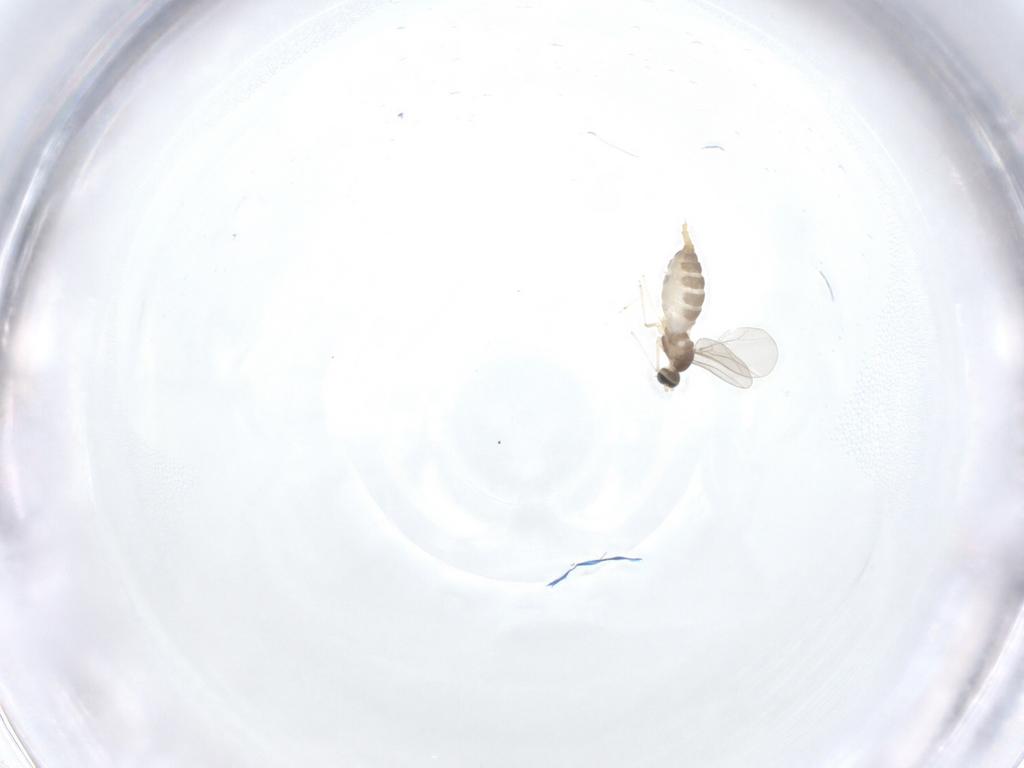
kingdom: Animalia
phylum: Arthropoda
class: Insecta
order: Diptera
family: Cecidomyiidae
